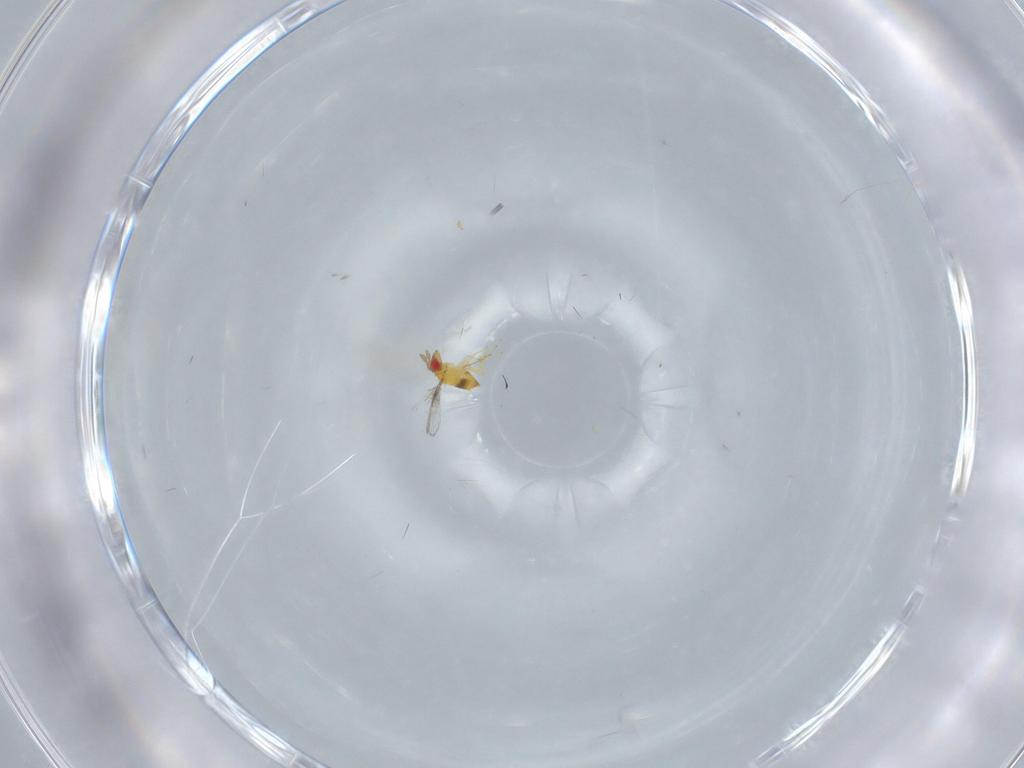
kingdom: Animalia
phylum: Arthropoda
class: Insecta
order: Hymenoptera
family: Trichogrammatidae
